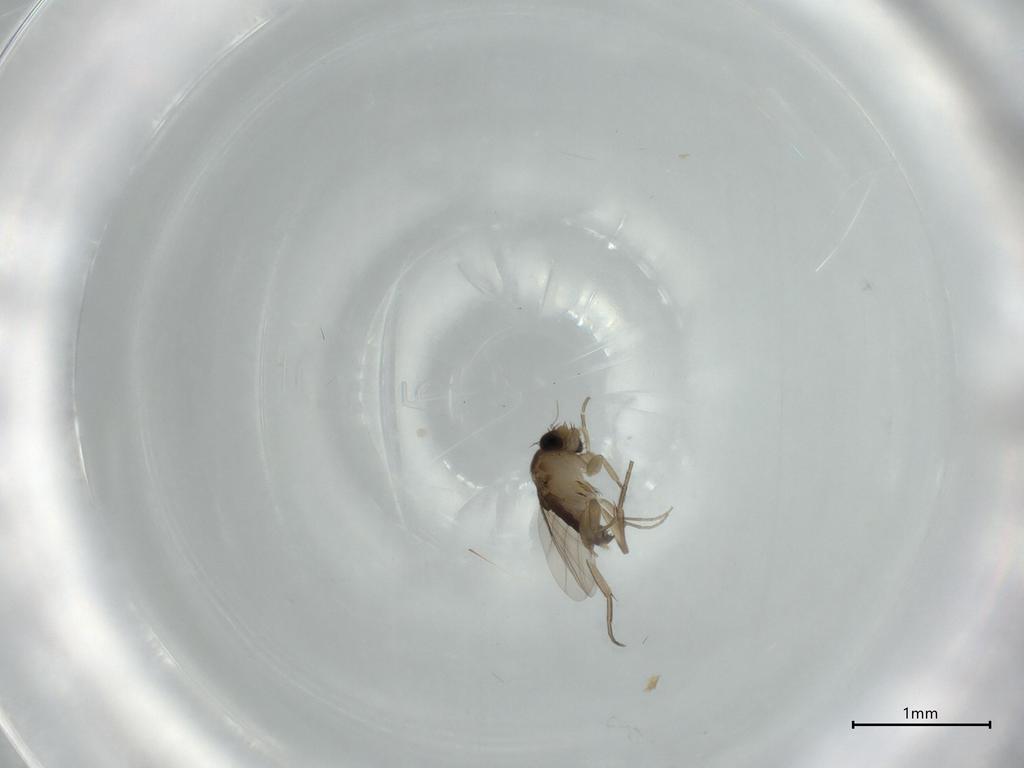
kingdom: Animalia
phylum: Arthropoda
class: Insecta
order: Diptera
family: Phoridae
